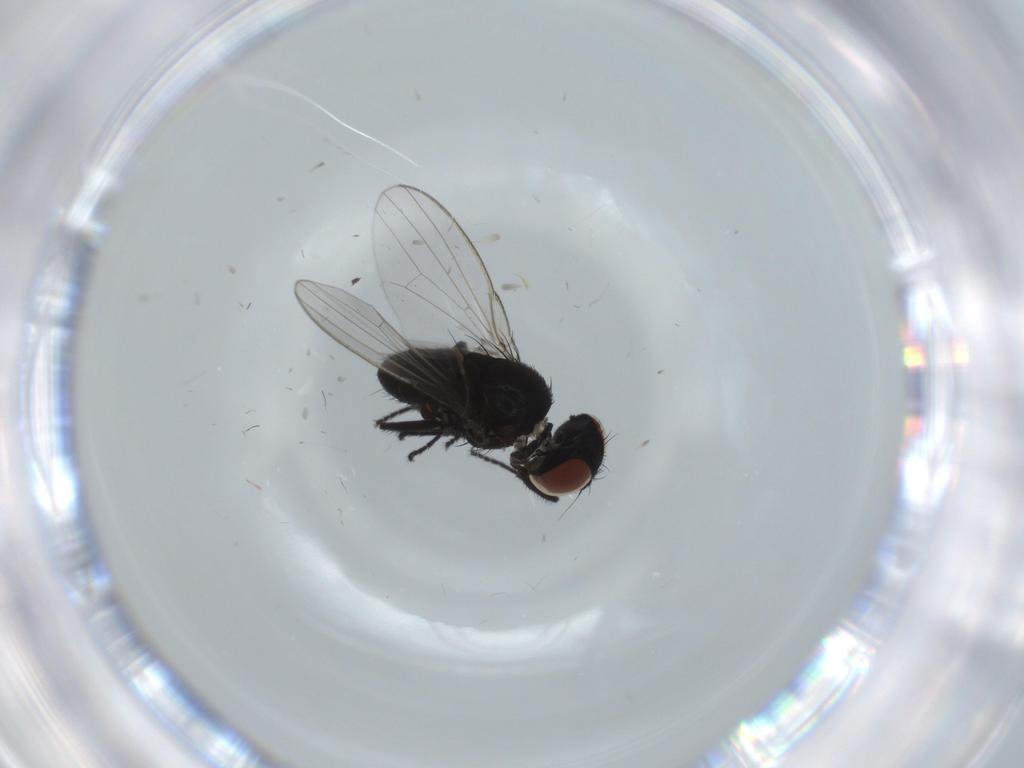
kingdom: Animalia
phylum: Arthropoda
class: Insecta
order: Diptera
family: Milichiidae
